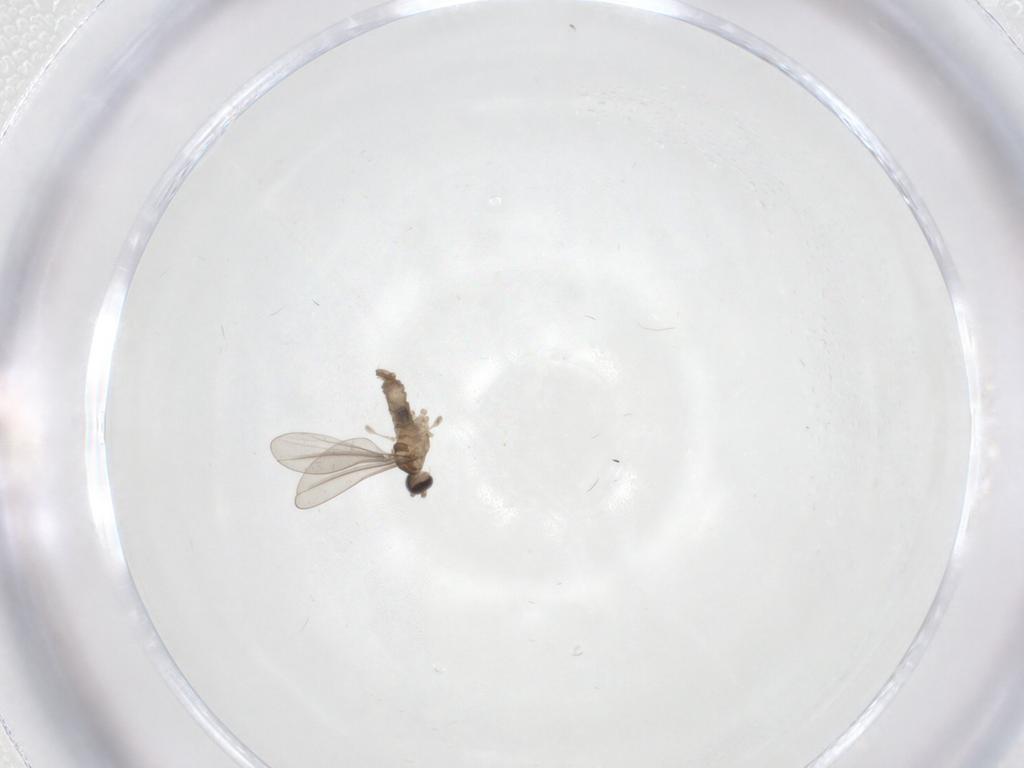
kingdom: Animalia
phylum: Arthropoda
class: Insecta
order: Diptera
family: Cecidomyiidae
